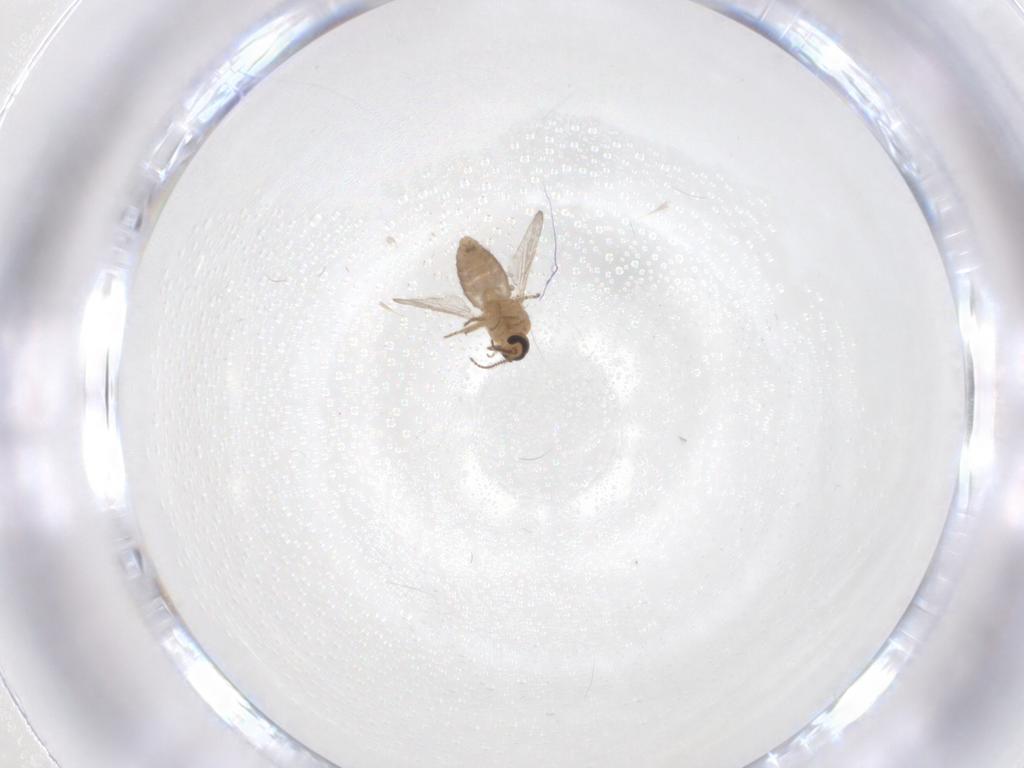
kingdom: Animalia
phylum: Arthropoda
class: Insecta
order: Diptera
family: Ceratopogonidae
